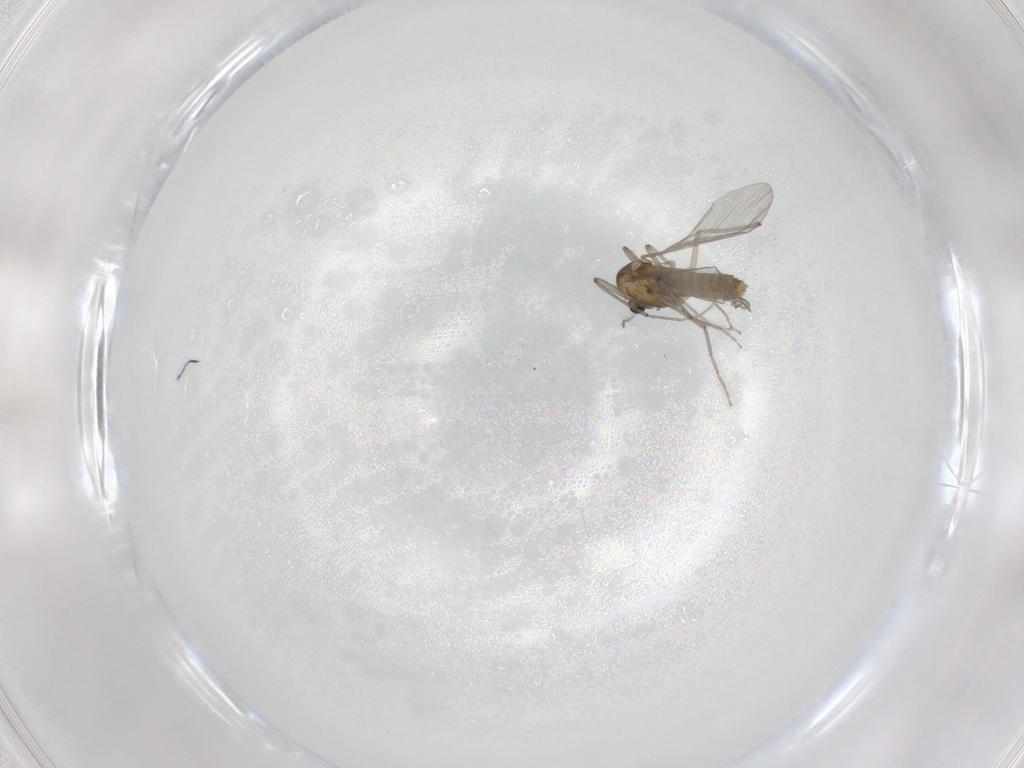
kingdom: Animalia
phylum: Arthropoda
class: Insecta
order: Diptera
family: Chironomidae
